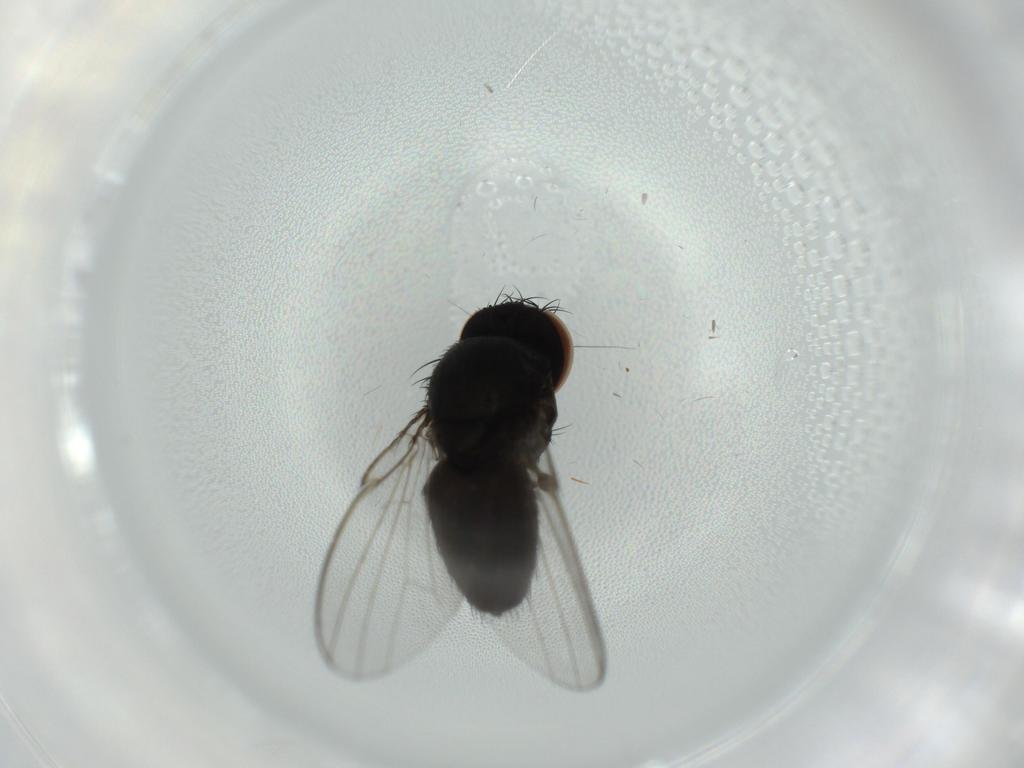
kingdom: Animalia
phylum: Arthropoda
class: Insecta
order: Diptera
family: Milichiidae
